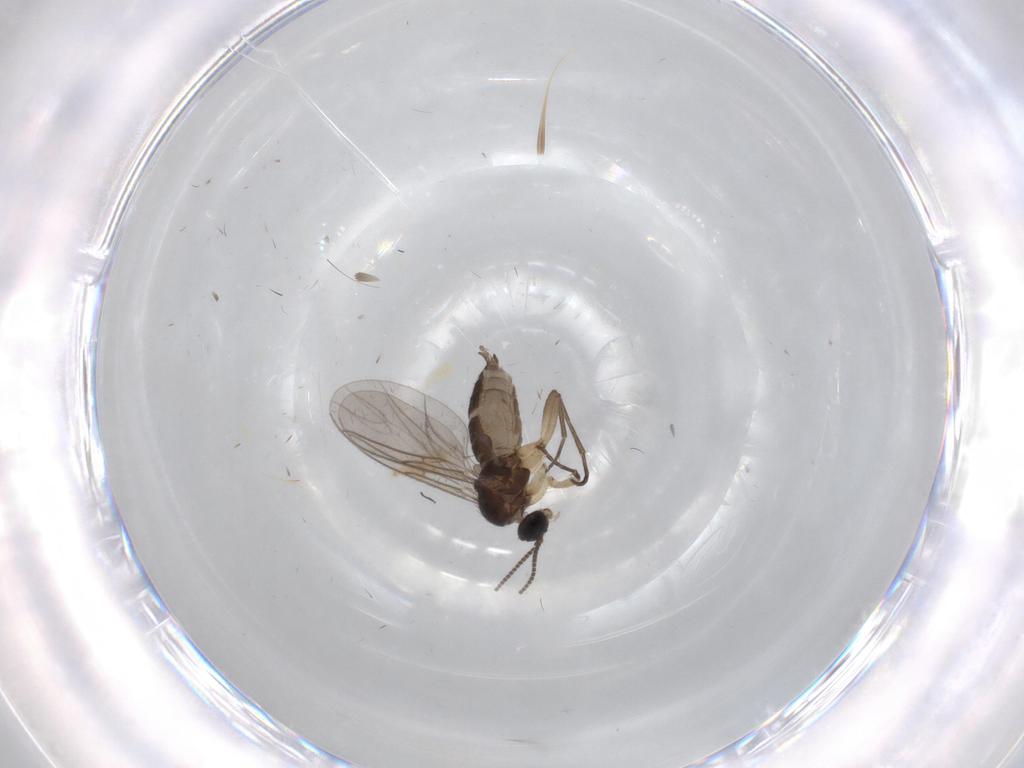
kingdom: Animalia
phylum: Arthropoda
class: Insecta
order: Diptera
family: Sciaridae
